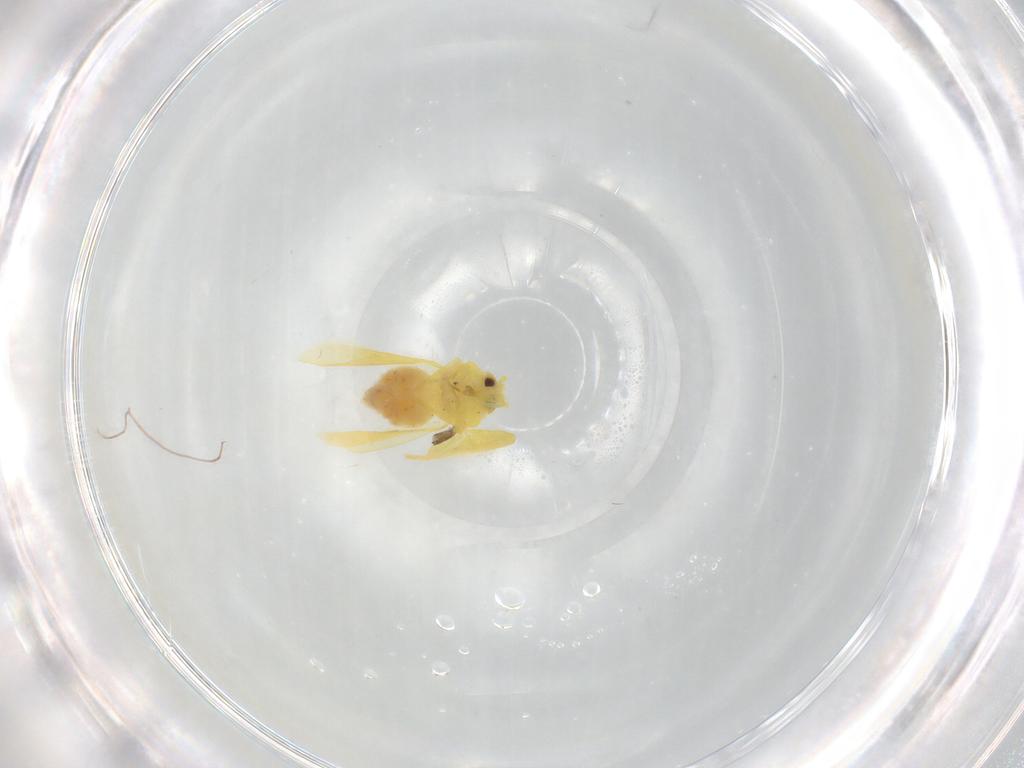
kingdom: Animalia
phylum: Arthropoda
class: Insecta
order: Hemiptera
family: Aleyrodidae
